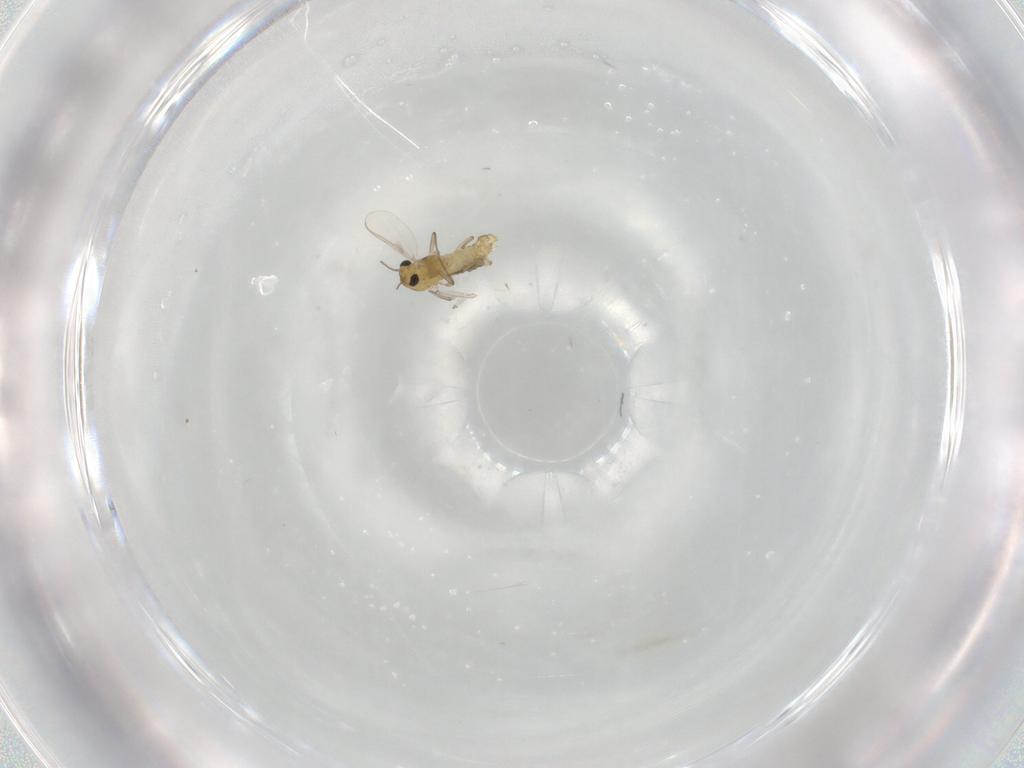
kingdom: Animalia
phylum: Arthropoda
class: Insecta
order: Diptera
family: Chironomidae
